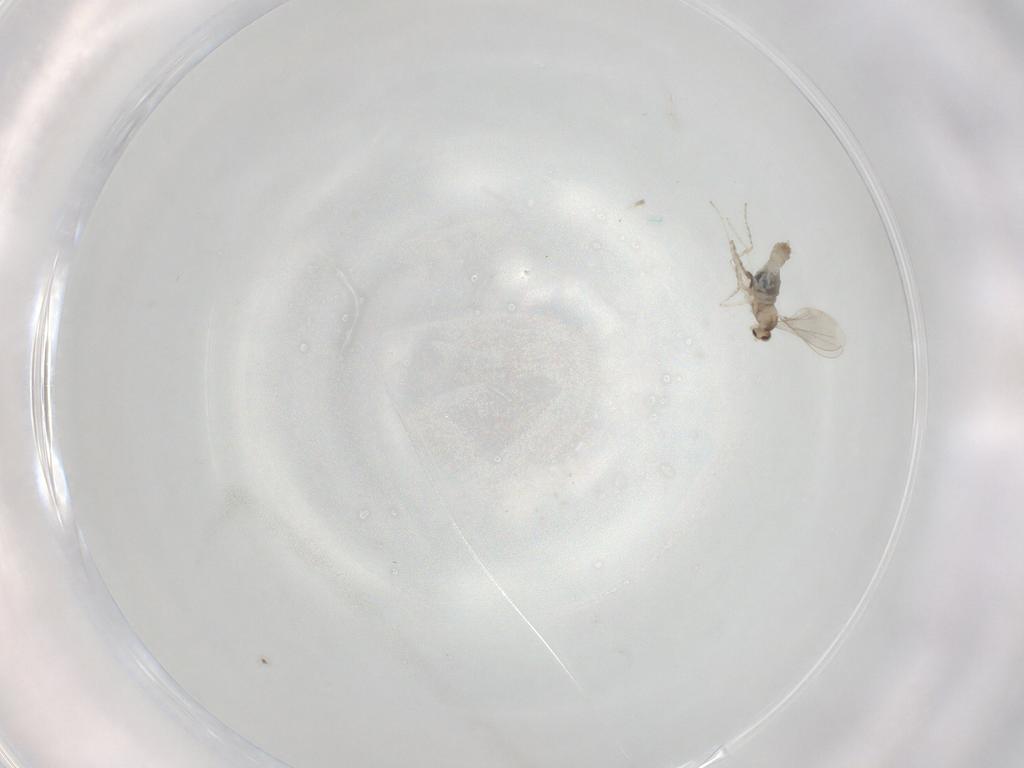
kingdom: Animalia
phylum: Arthropoda
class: Insecta
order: Diptera
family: Cecidomyiidae
